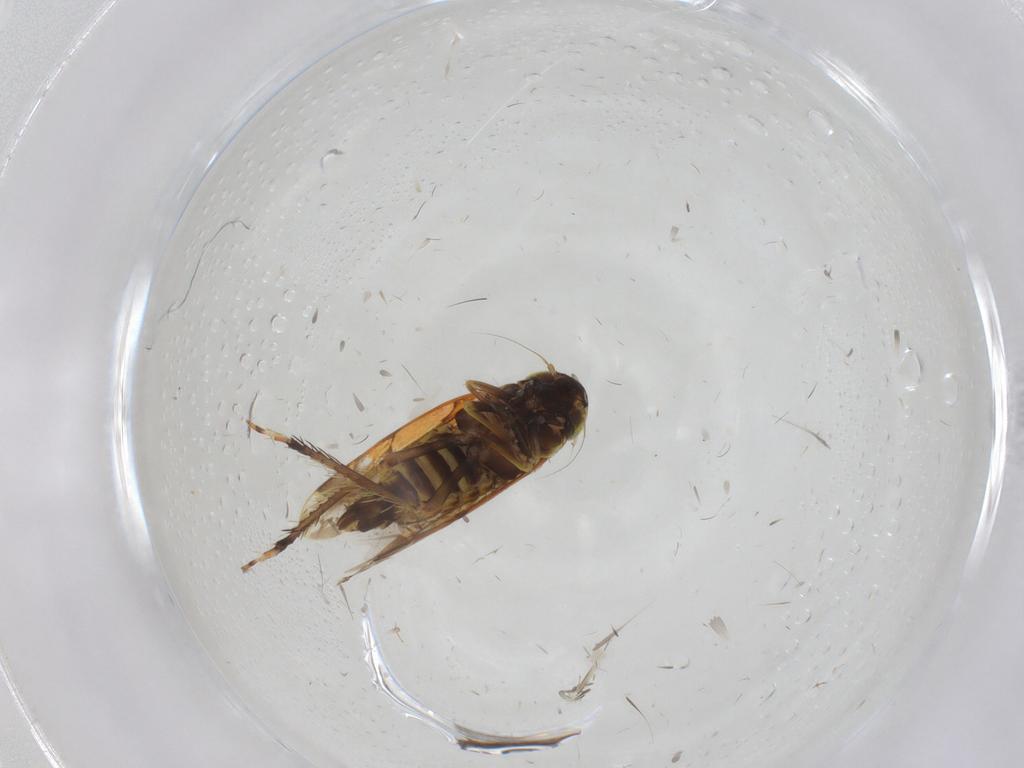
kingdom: Animalia
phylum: Arthropoda
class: Insecta
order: Hemiptera
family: Cicadellidae
